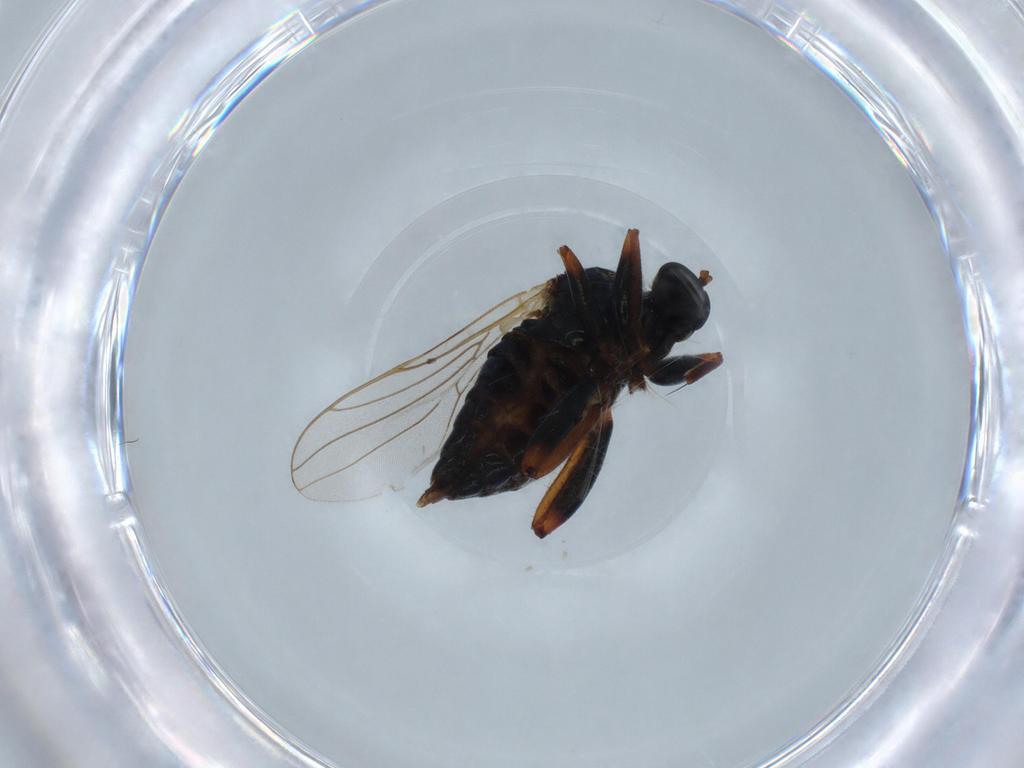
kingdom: Animalia
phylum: Arthropoda
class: Insecta
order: Diptera
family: Empididae
